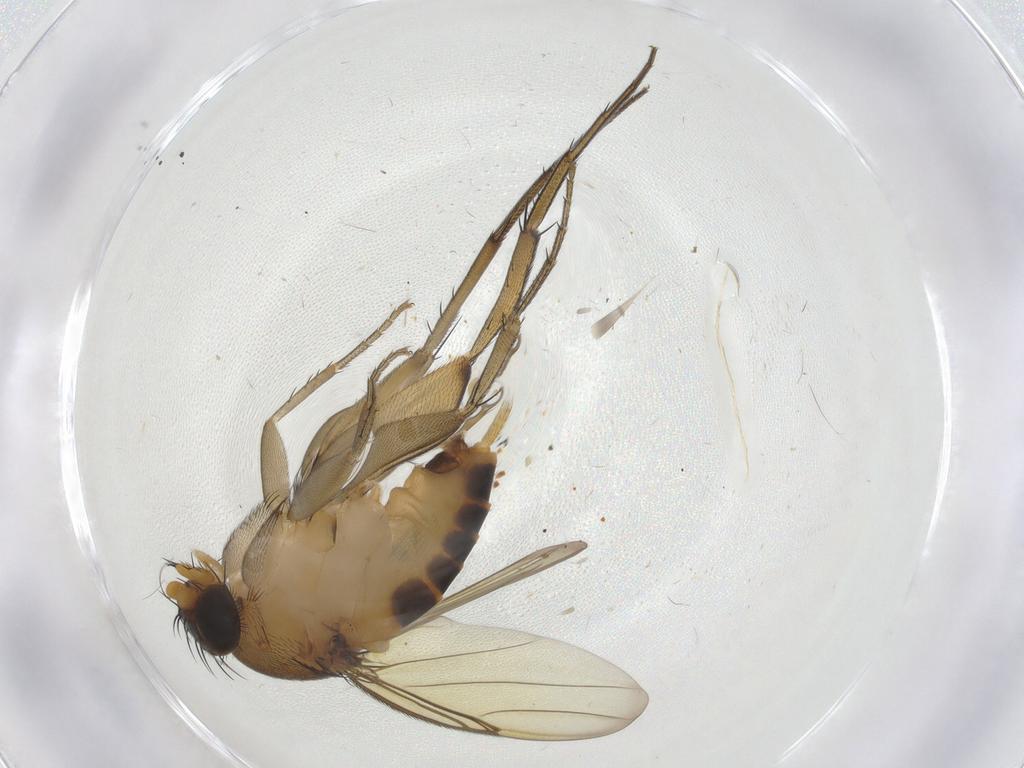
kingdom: Animalia
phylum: Arthropoda
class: Insecta
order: Diptera
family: Phoridae
